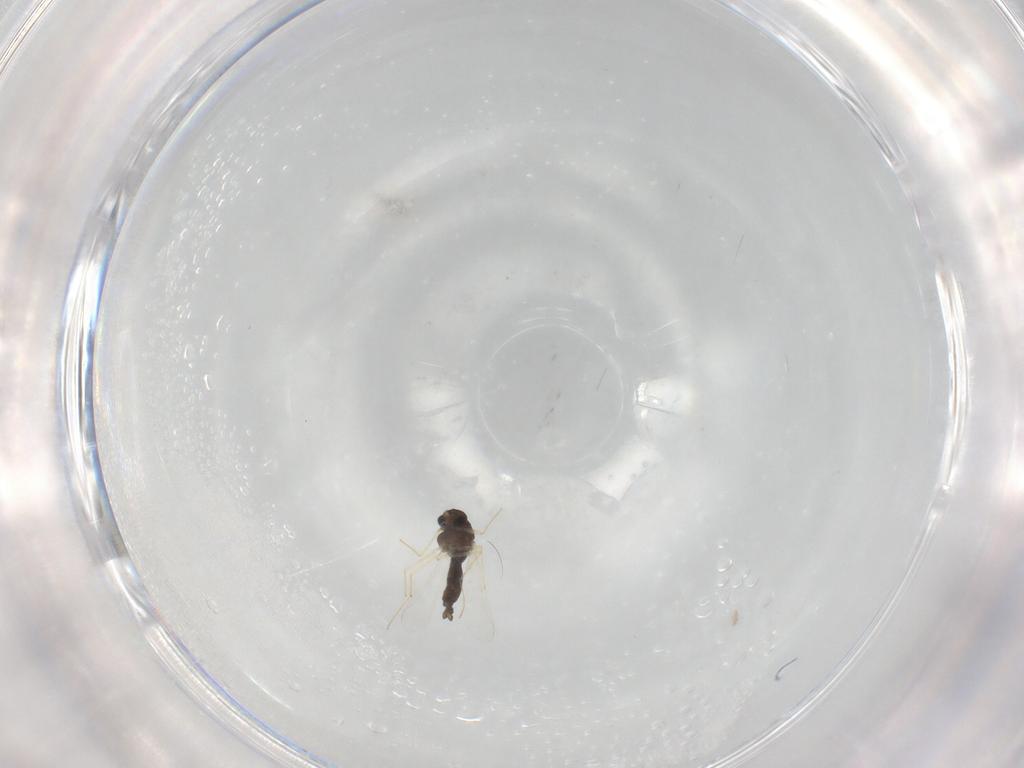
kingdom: Animalia
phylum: Arthropoda
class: Insecta
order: Diptera
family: Chironomidae
